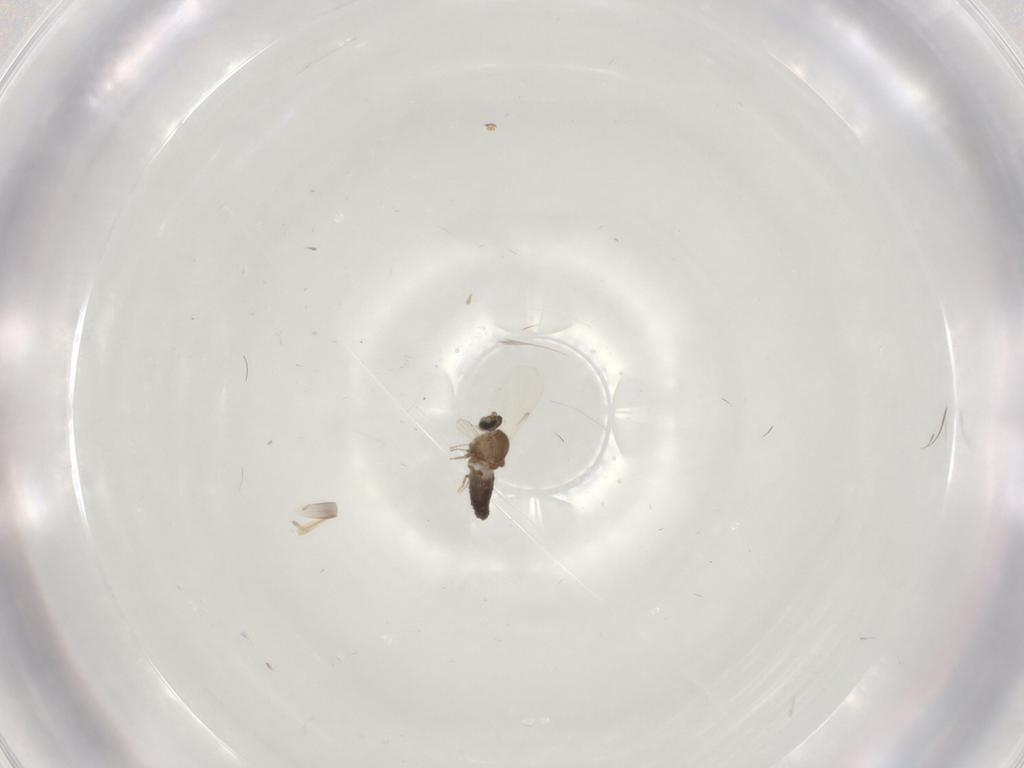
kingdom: Animalia
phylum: Arthropoda
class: Insecta
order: Diptera
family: Ceratopogonidae
